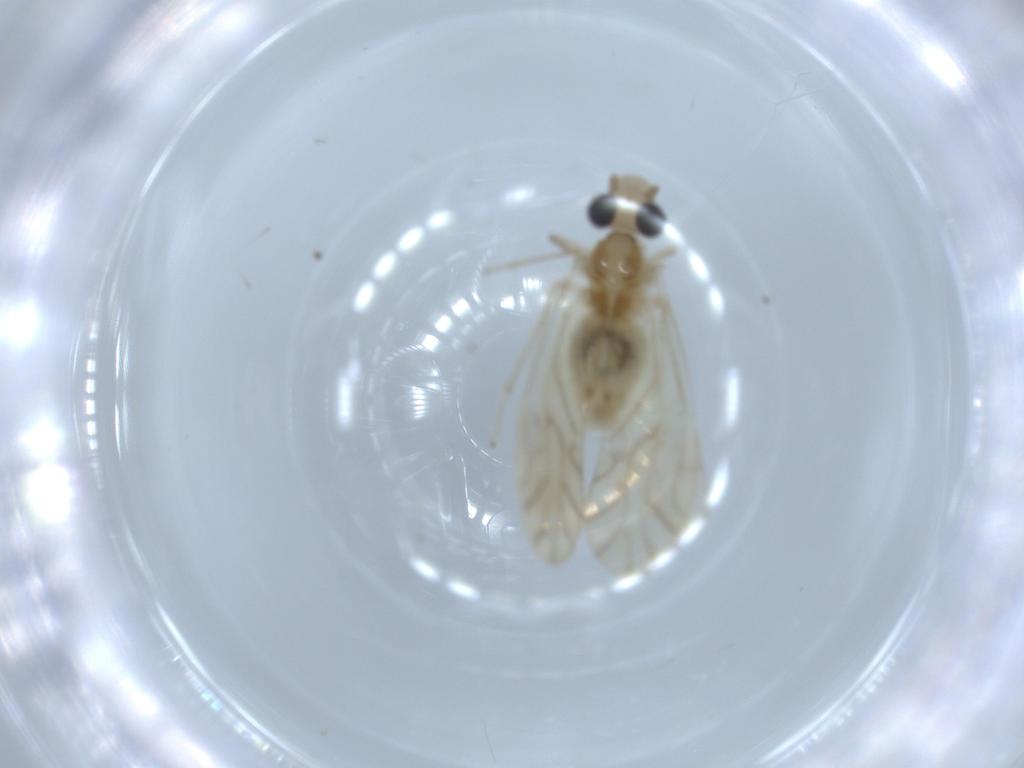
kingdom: Animalia
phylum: Arthropoda
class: Insecta
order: Psocodea
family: Caeciliusidae
